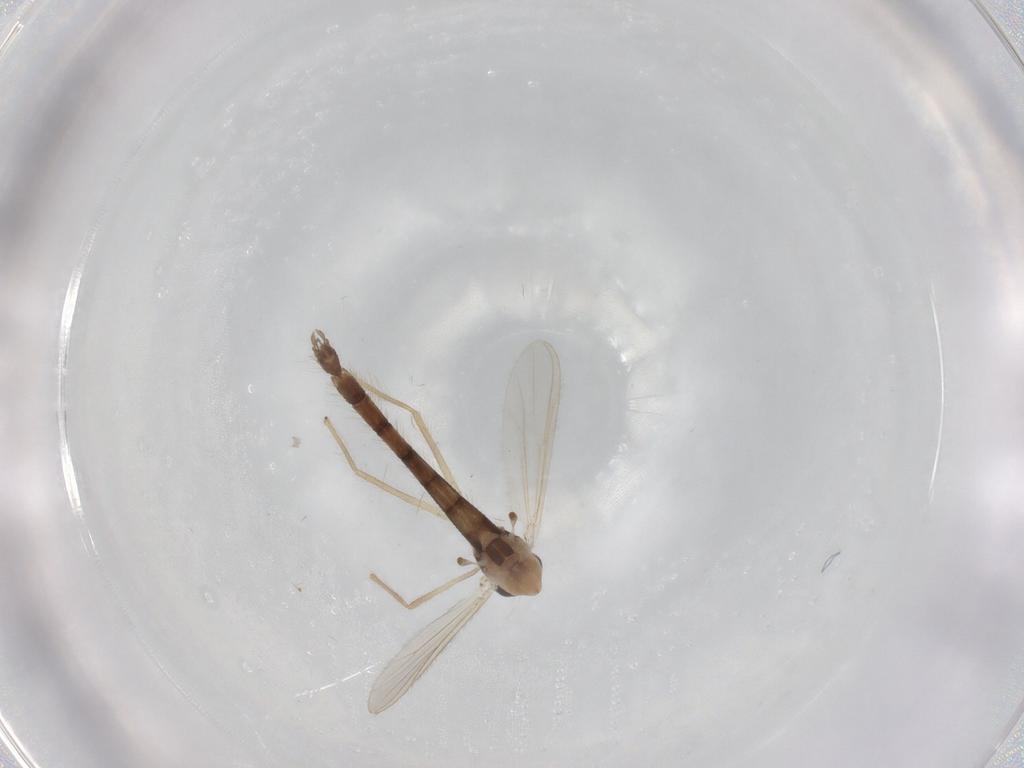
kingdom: Animalia
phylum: Arthropoda
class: Insecta
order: Diptera
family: Chironomidae
